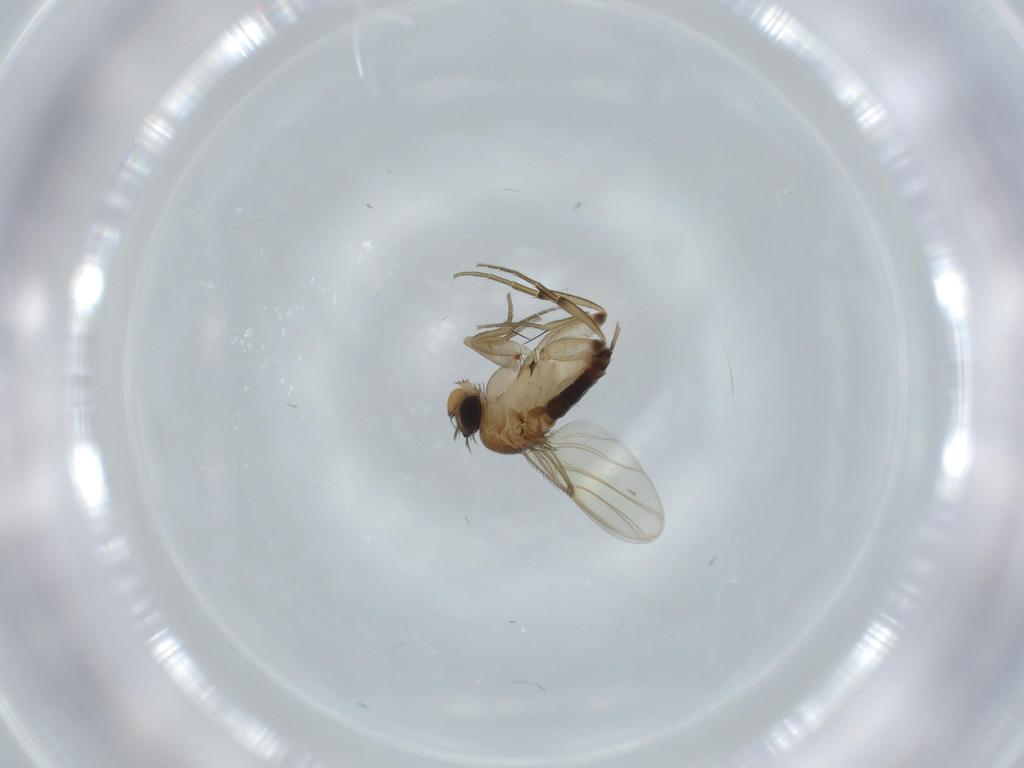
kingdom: Animalia
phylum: Arthropoda
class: Insecta
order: Diptera
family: Phoridae
